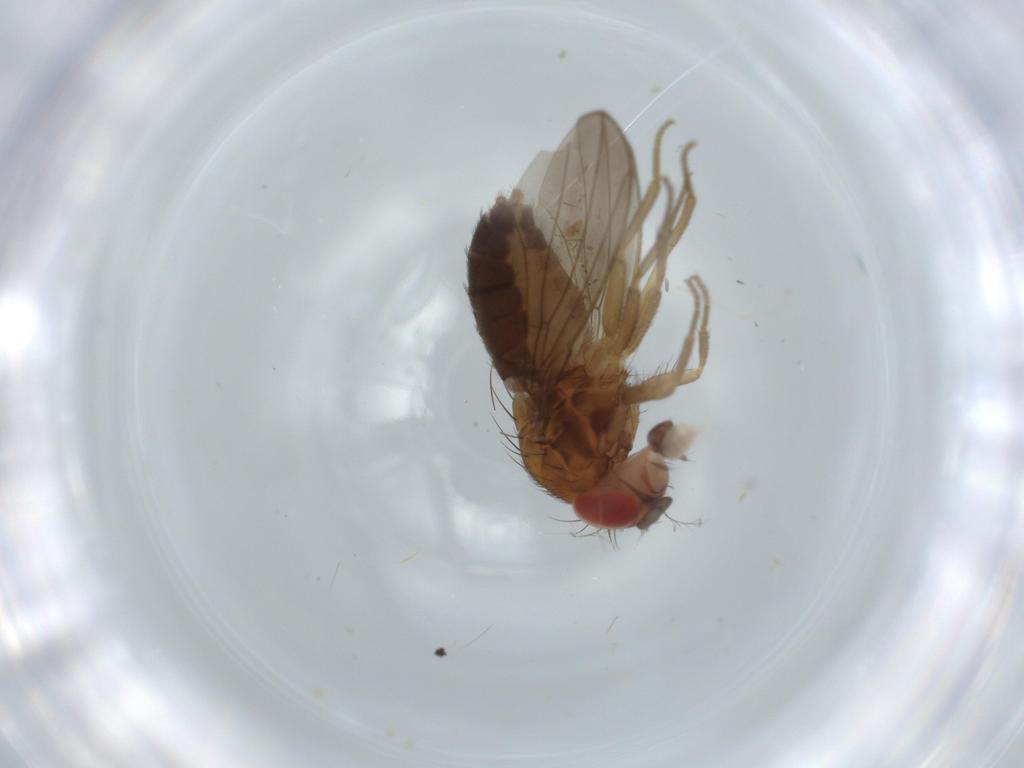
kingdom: Animalia
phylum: Arthropoda
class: Insecta
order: Diptera
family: Drosophilidae
